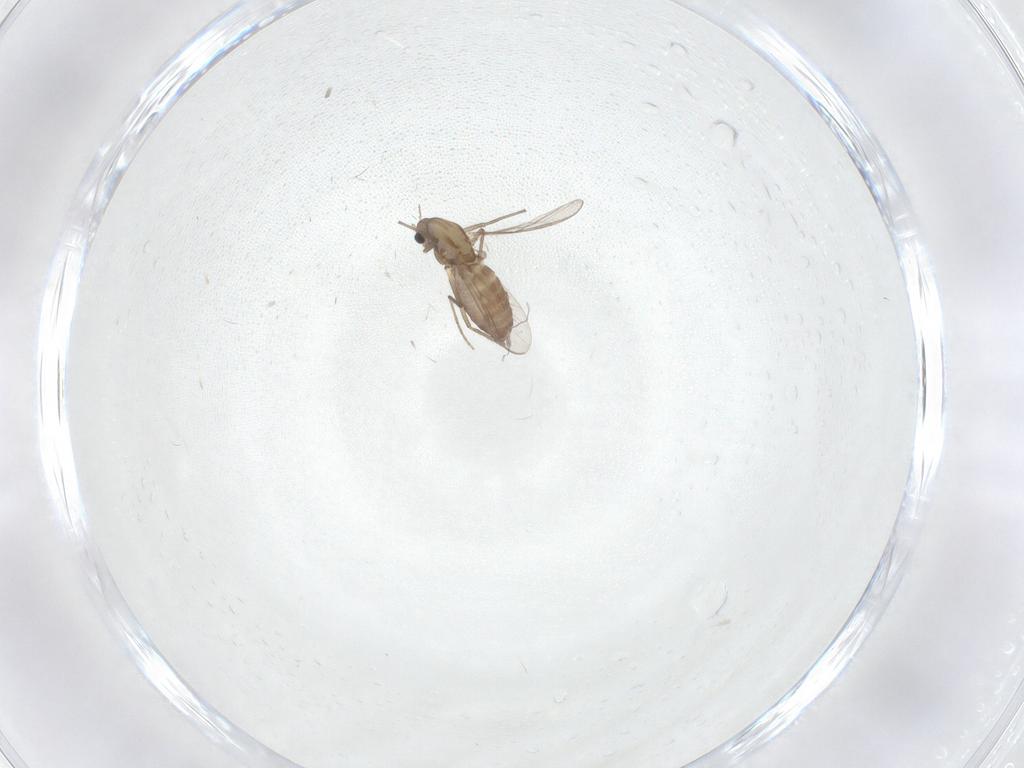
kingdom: Animalia
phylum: Arthropoda
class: Insecta
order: Diptera
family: Chironomidae
